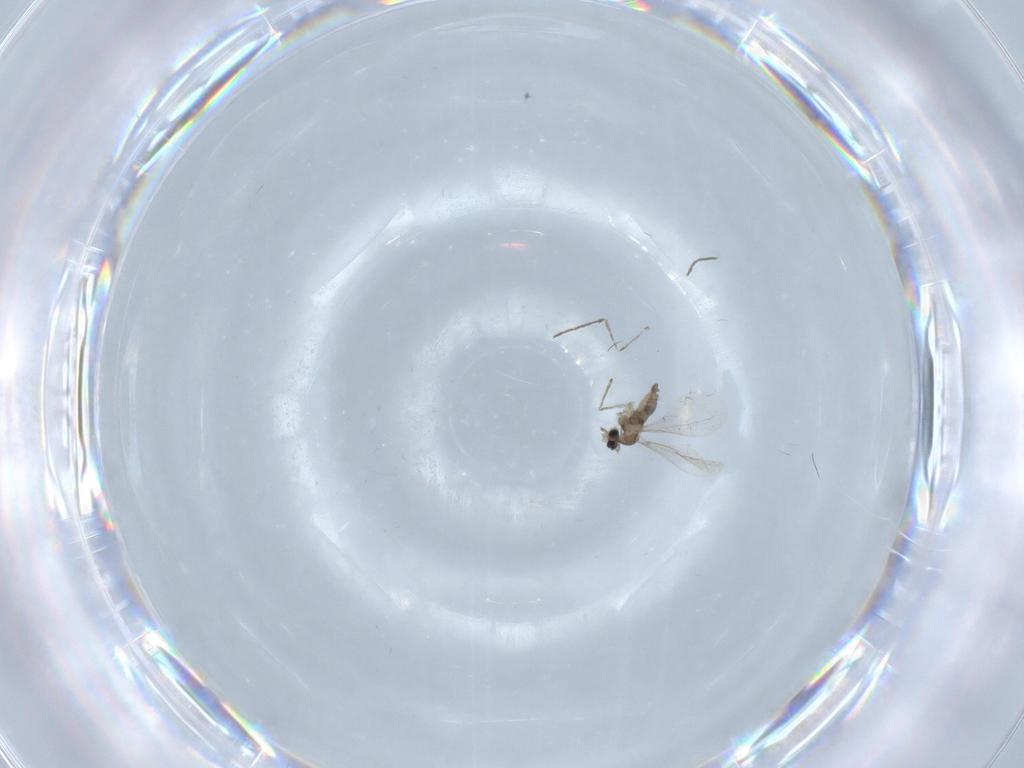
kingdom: Animalia
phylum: Arthropoda
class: Insecta
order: Diptera
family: Cecidomyiidae
